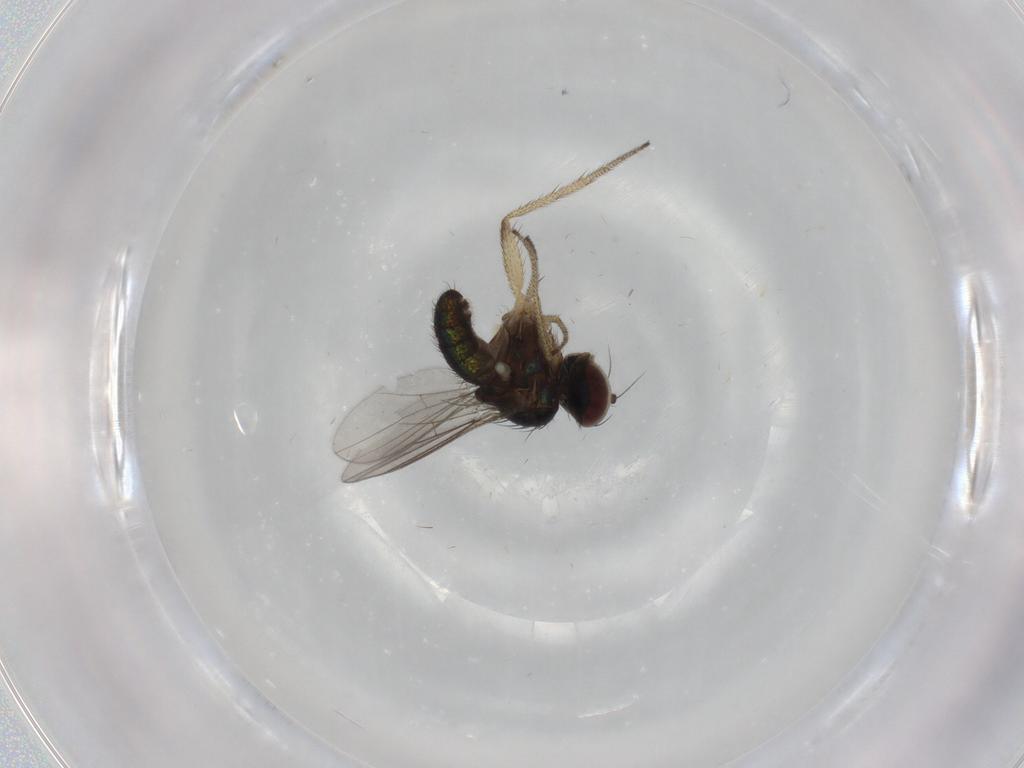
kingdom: Animalia
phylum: Arthropoda
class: Insecta
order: Diptera
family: Dolichopodidae
